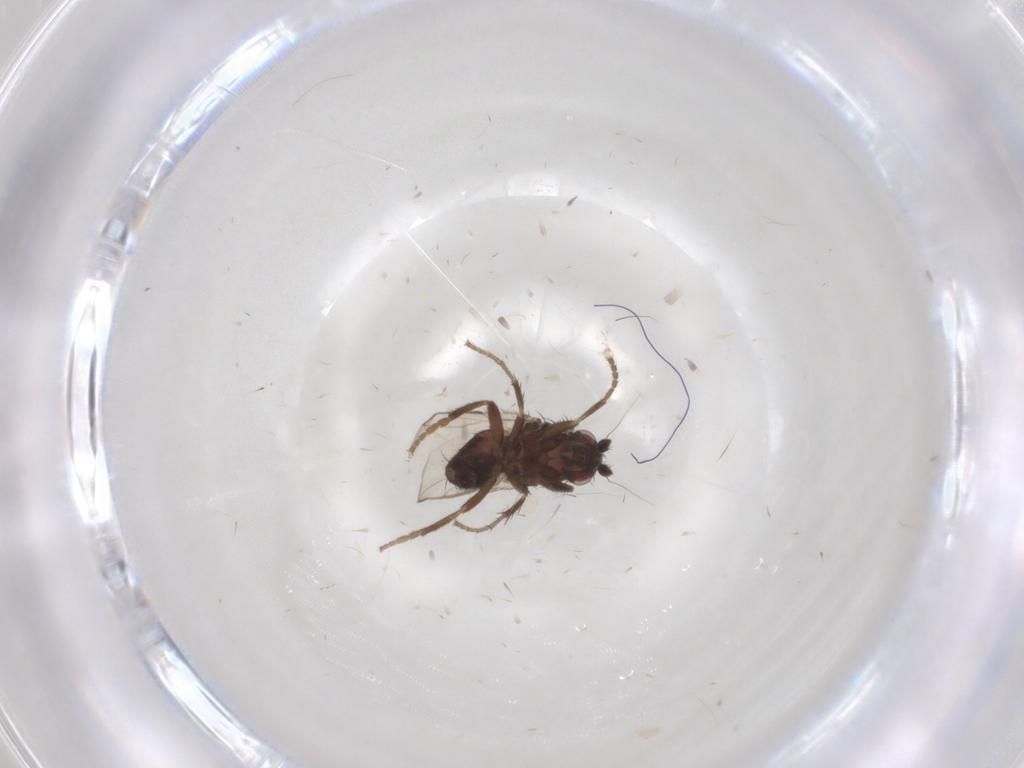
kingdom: Animalia
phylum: Arthropoda
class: Insecta
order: Diptera
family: Sphaeroceridae
